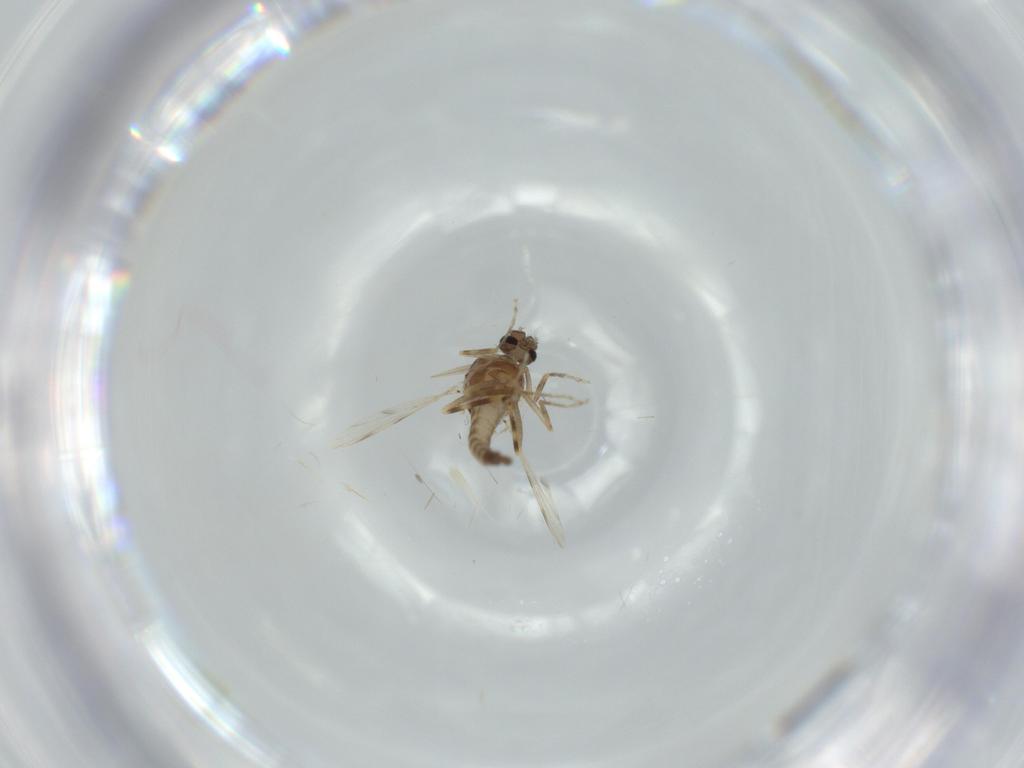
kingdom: Animalia
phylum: Arthropoda
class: Insecta
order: Diptera
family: Ceratopogonidae
